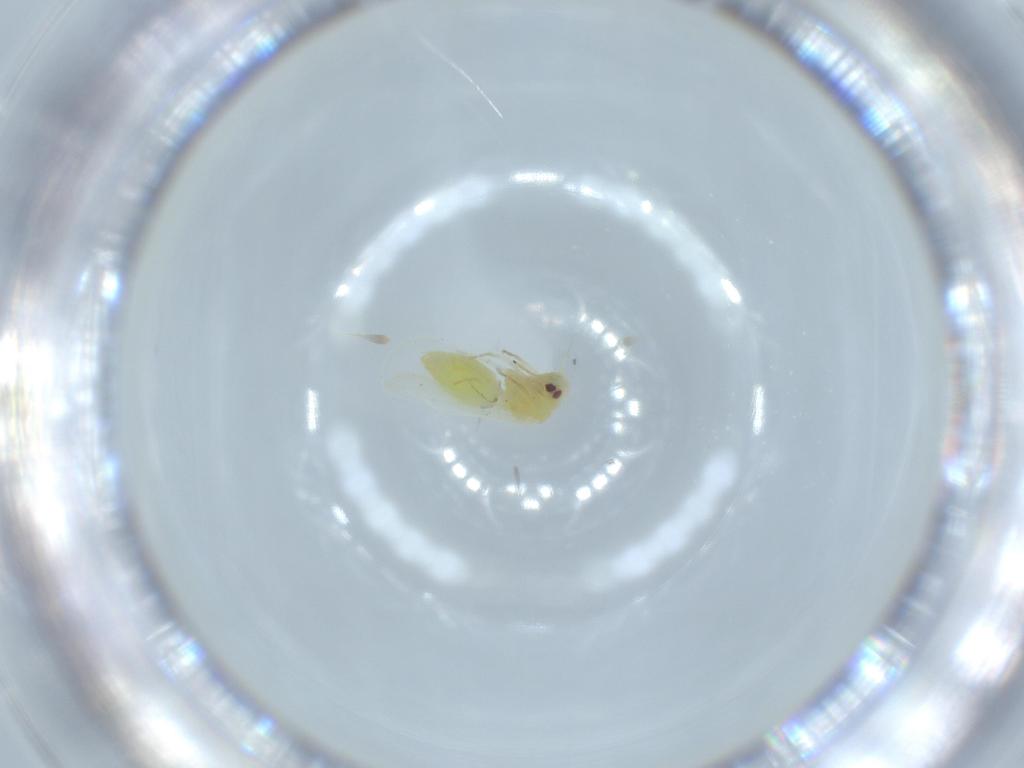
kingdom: Animalia
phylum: Arthropoda
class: Insecta
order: Hemiptera
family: Aleyrodidae
